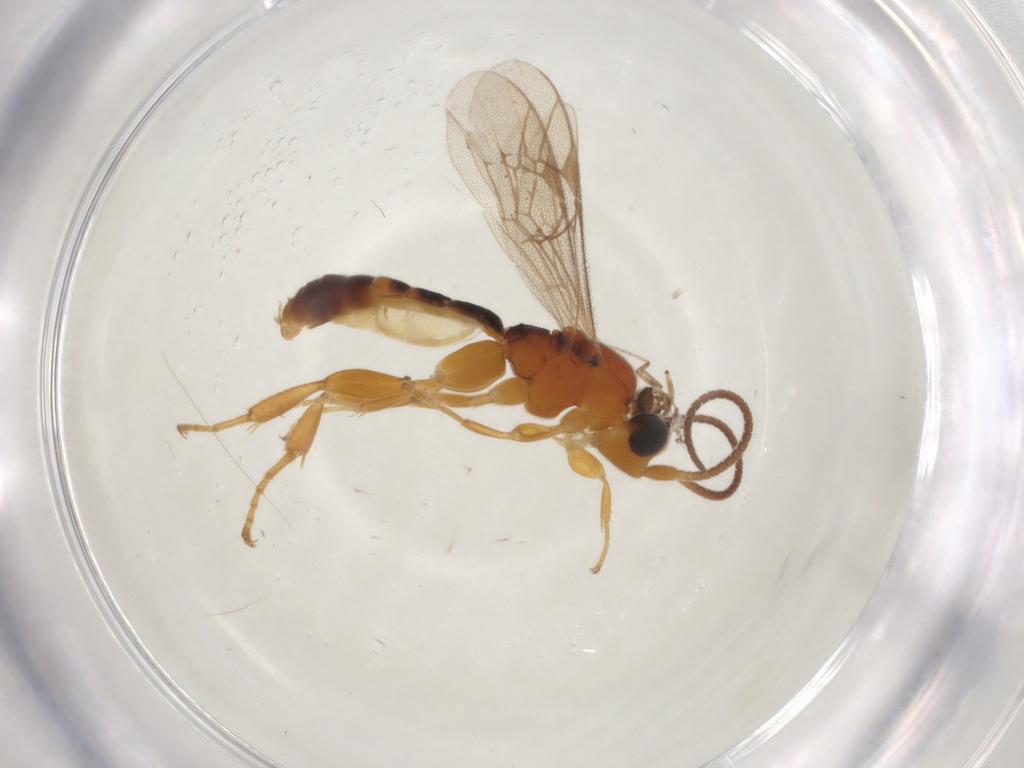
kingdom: Animalia
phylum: Arthropoda
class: Insecta
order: Hymenoptera
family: Ichneumonidae
